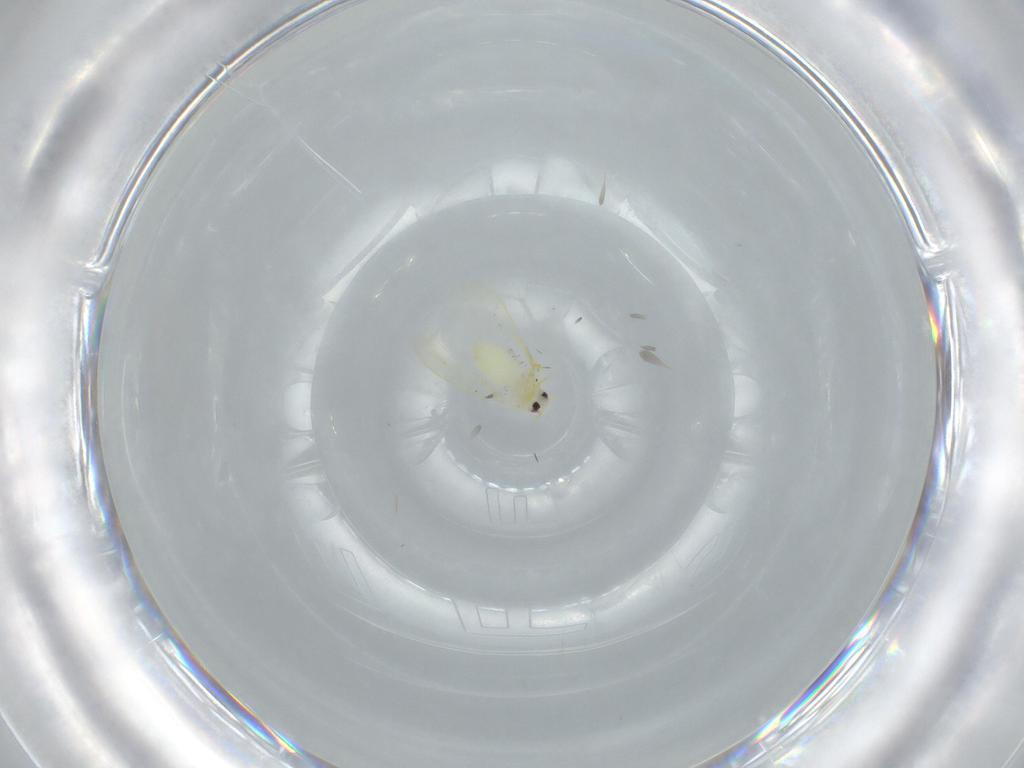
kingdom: Animalia
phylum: Arthropoda
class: Insecta
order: Hemiptera
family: Aleyrodidae
